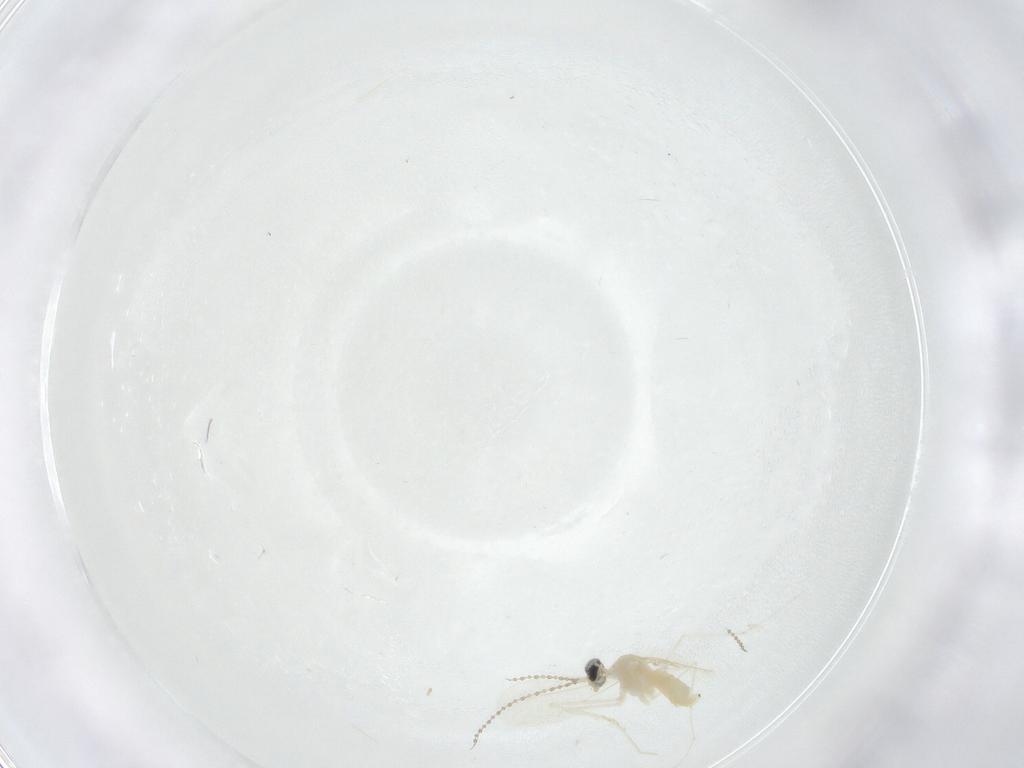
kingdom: Animalia
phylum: Arthropoda
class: Insecta
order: Diptera
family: Cecidomyiidae
